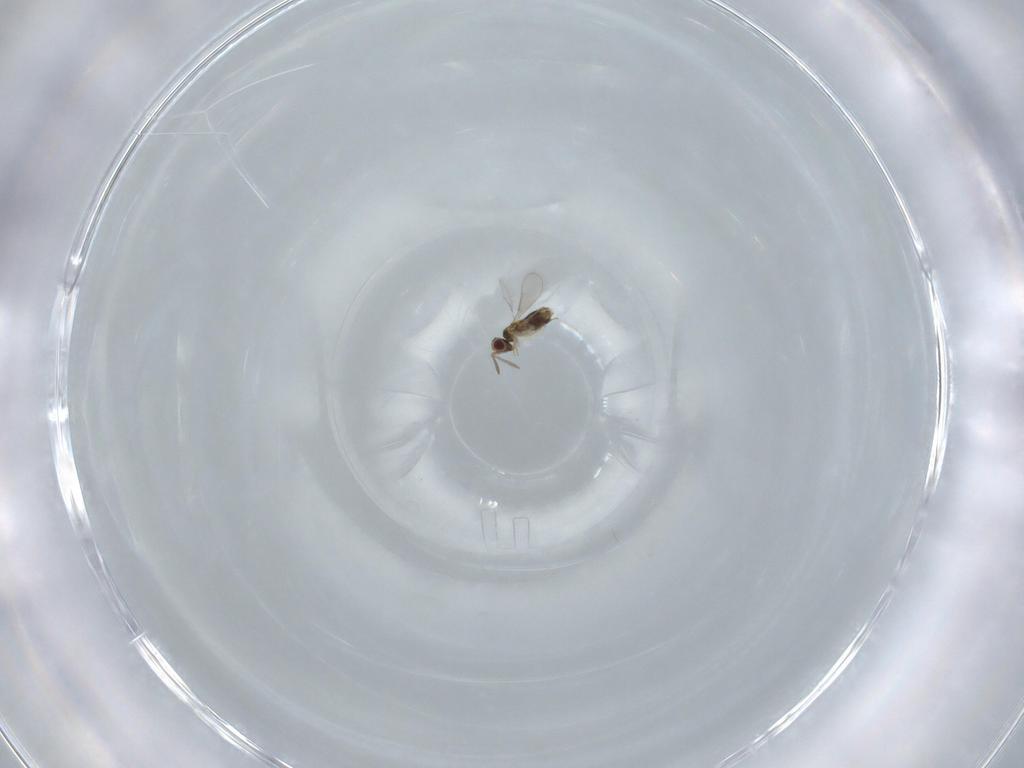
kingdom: Animalia
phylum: Arthropoda
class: Insecta
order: Hymenoptera
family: Aphelinidae
